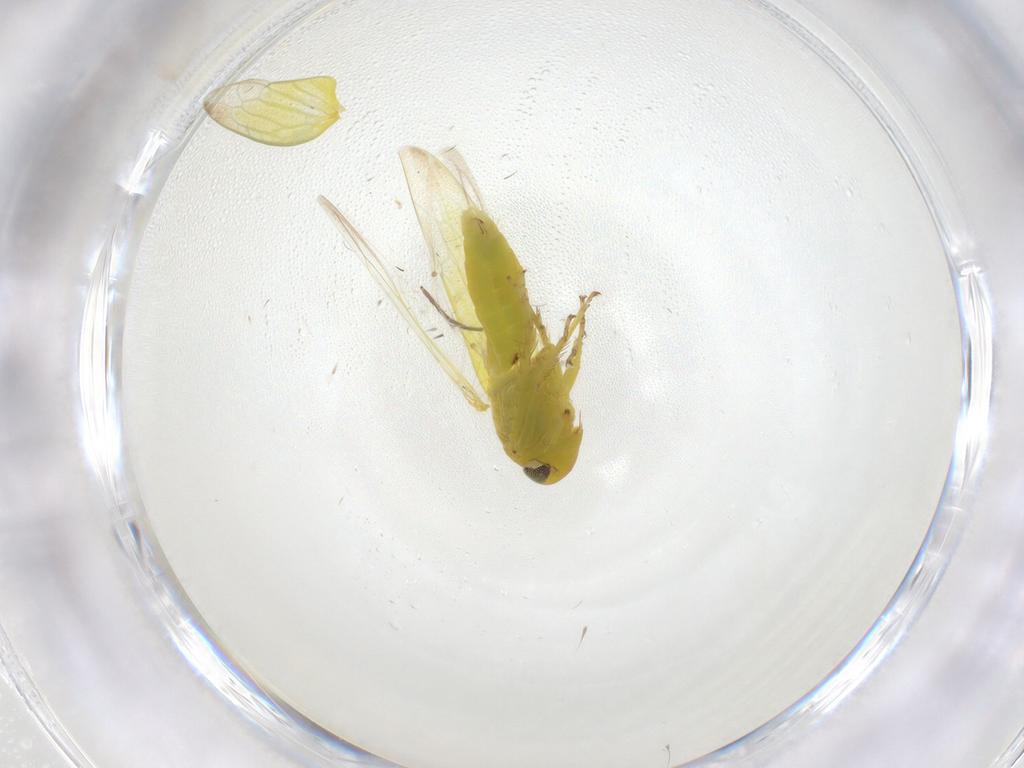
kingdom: Animalia
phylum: Arthropoda
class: Insecta
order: Hemiptera
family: Cicadellidae
